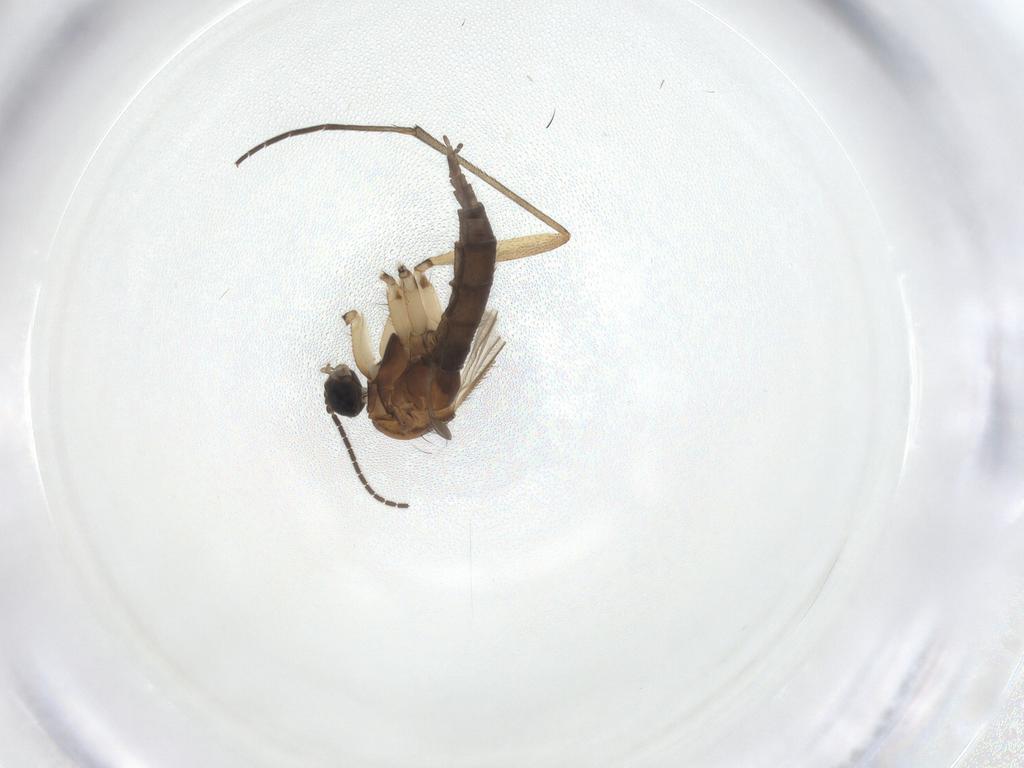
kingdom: Animalia
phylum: Arthropoda
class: Insecta
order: Diptera
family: Sciaridae
